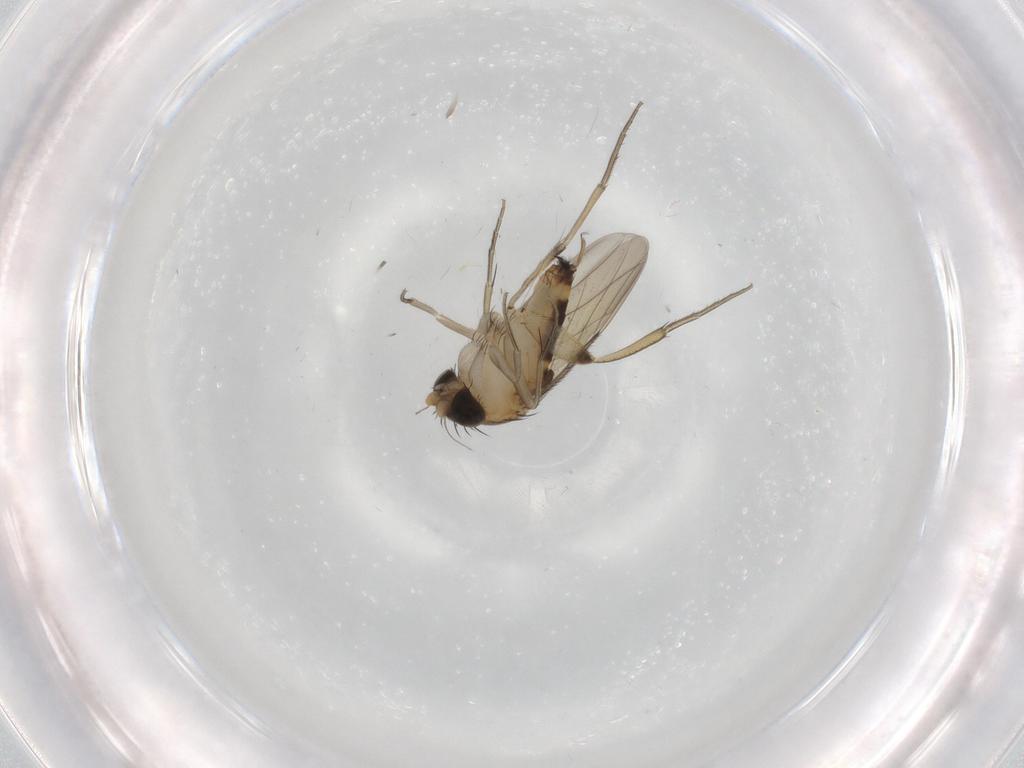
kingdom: Animalia
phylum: Arthropoda
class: Insecta
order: Diptera
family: Phoridae
